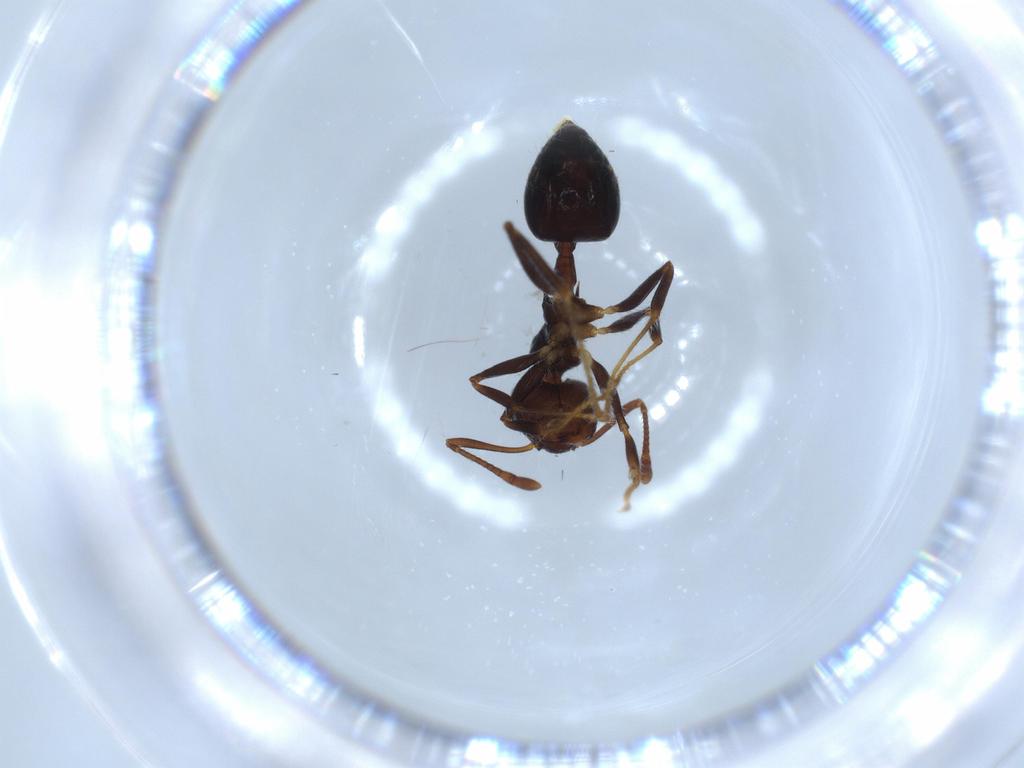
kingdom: Animalia
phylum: Arthropoda
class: Insecta
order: Hymenoptera
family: Formicidae
